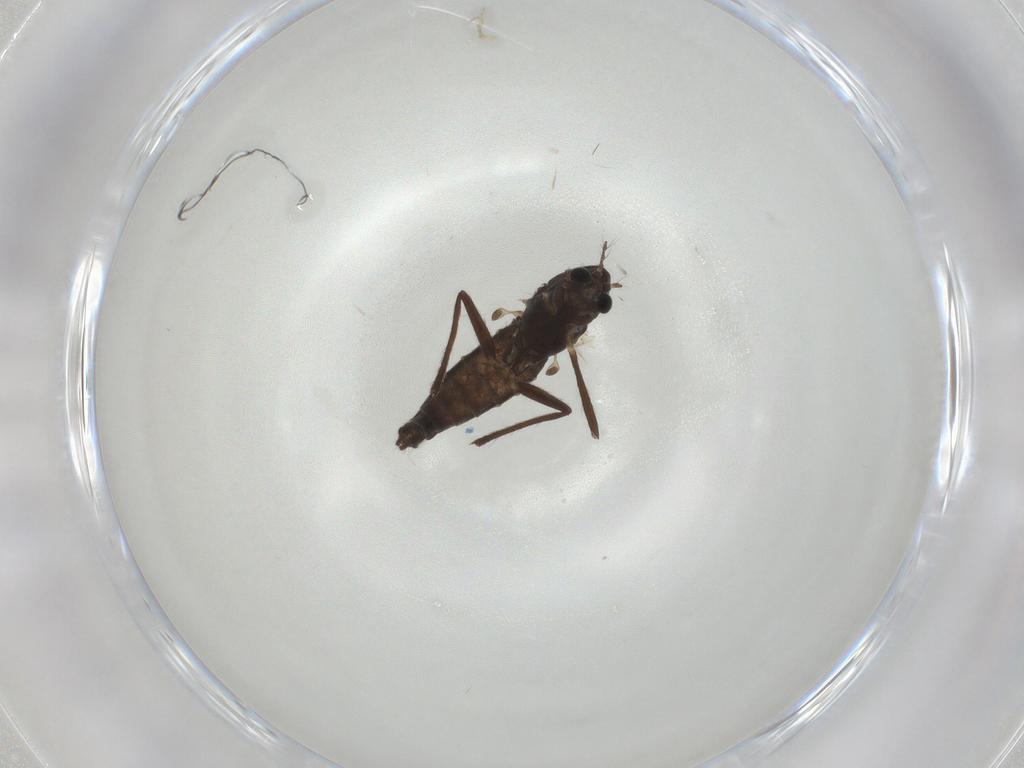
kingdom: Animalia
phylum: Arthropoda
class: Insecta
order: Diptera
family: Chironomidae
